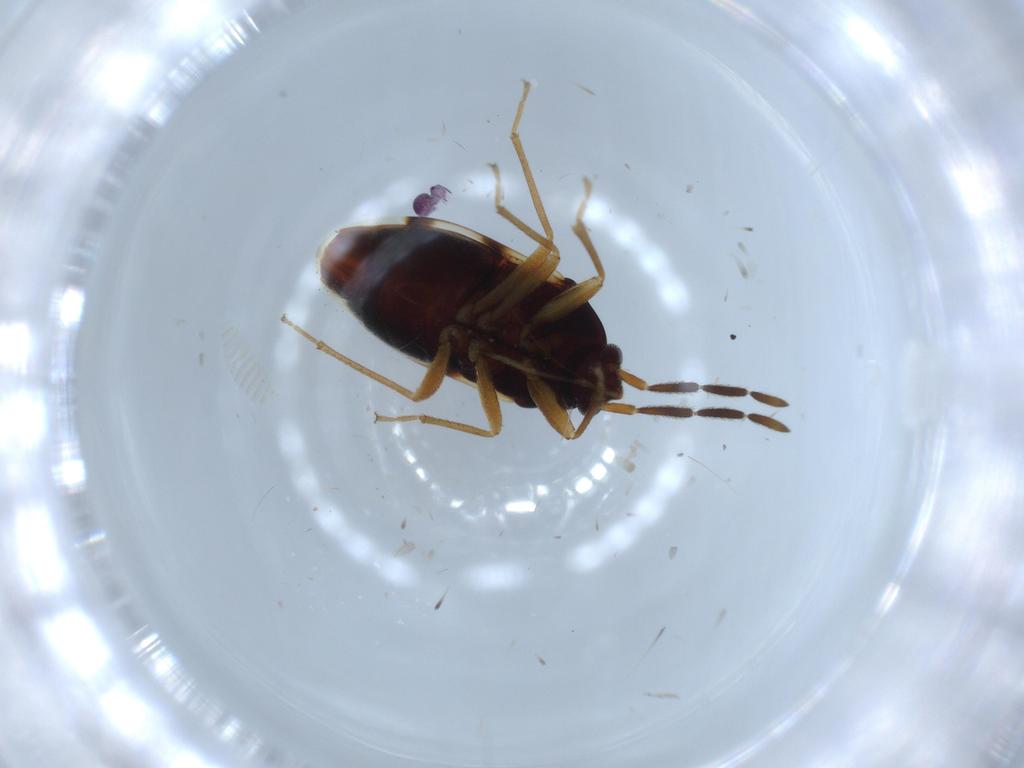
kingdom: Animalia
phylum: Arthropoda
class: Insecta
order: Hemiptera
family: Rhyparochromidae
